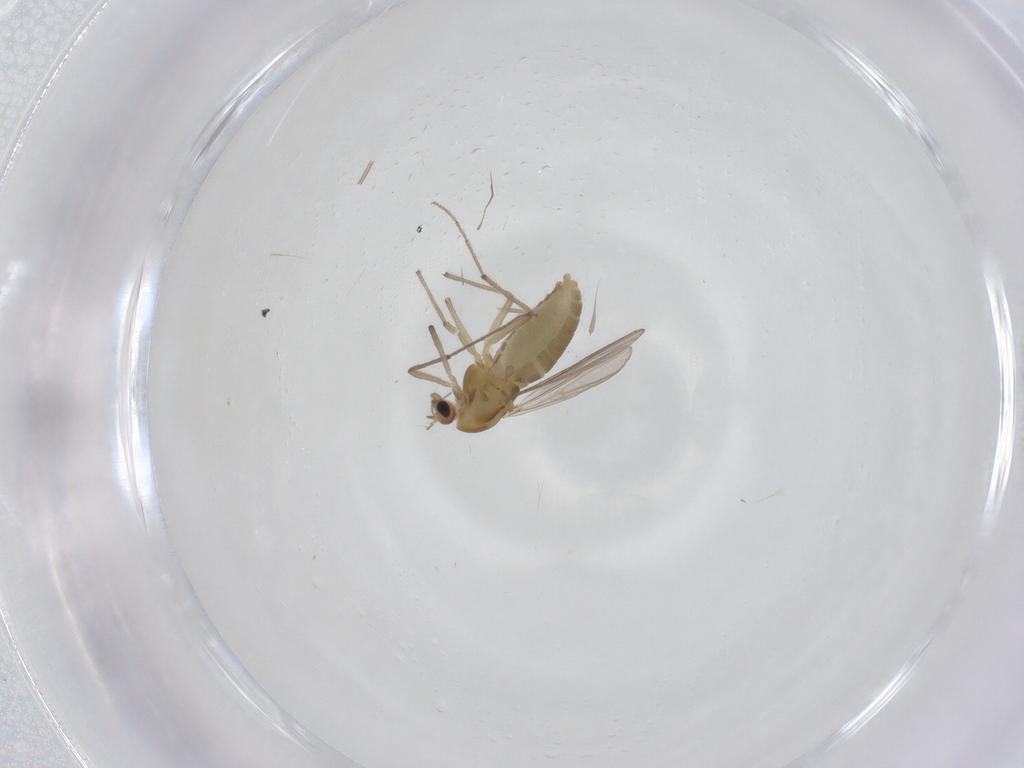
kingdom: Animalia
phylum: Arthropoda
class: Insecta
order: Diptera
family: Chironomidae
